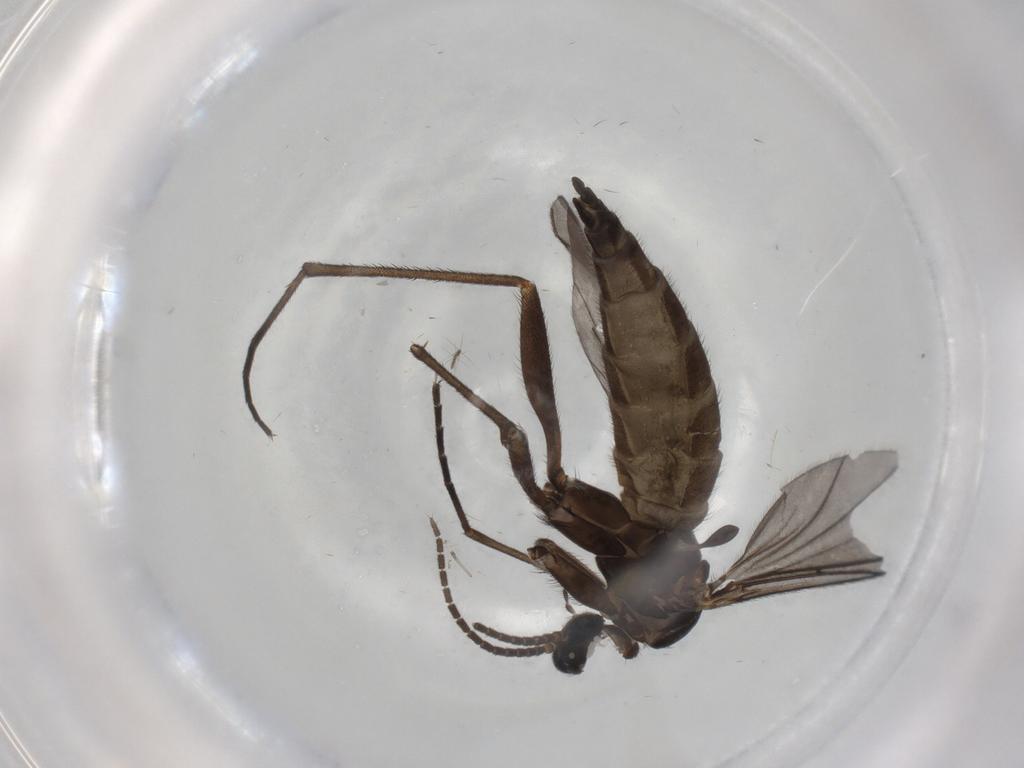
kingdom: Animalia
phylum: Arthropoda
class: Insecta
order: Diptera
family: Sciaridae
